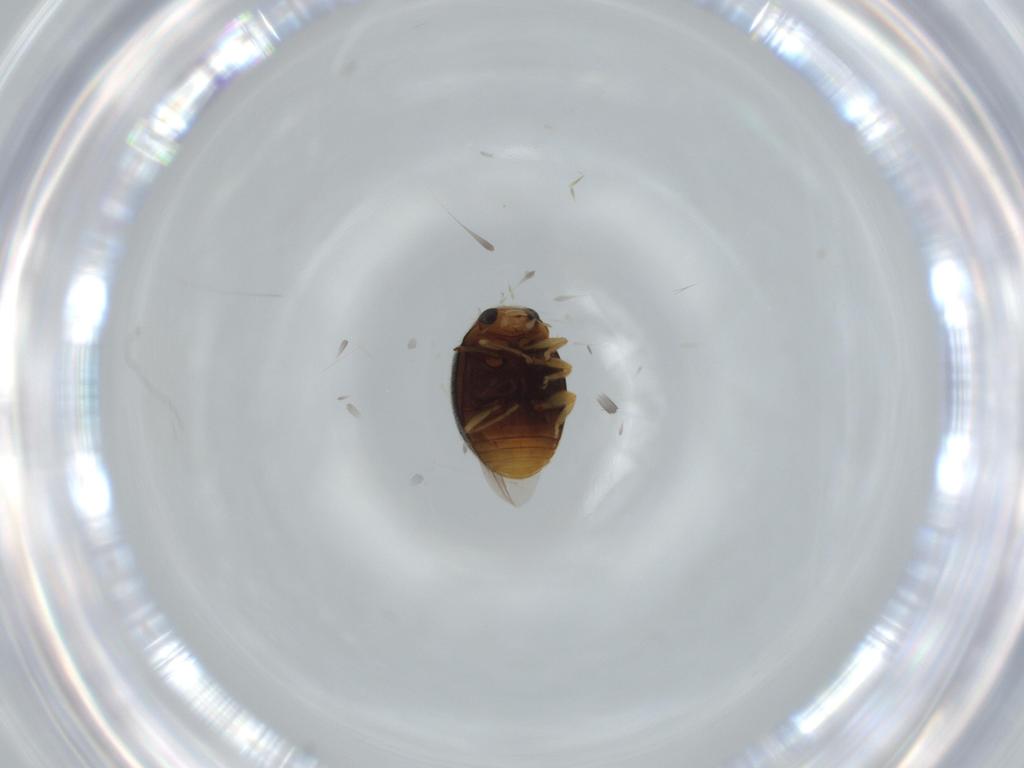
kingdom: Animalia
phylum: Arthropoda
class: Insecta
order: Coleoptera
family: Coccinellidae
